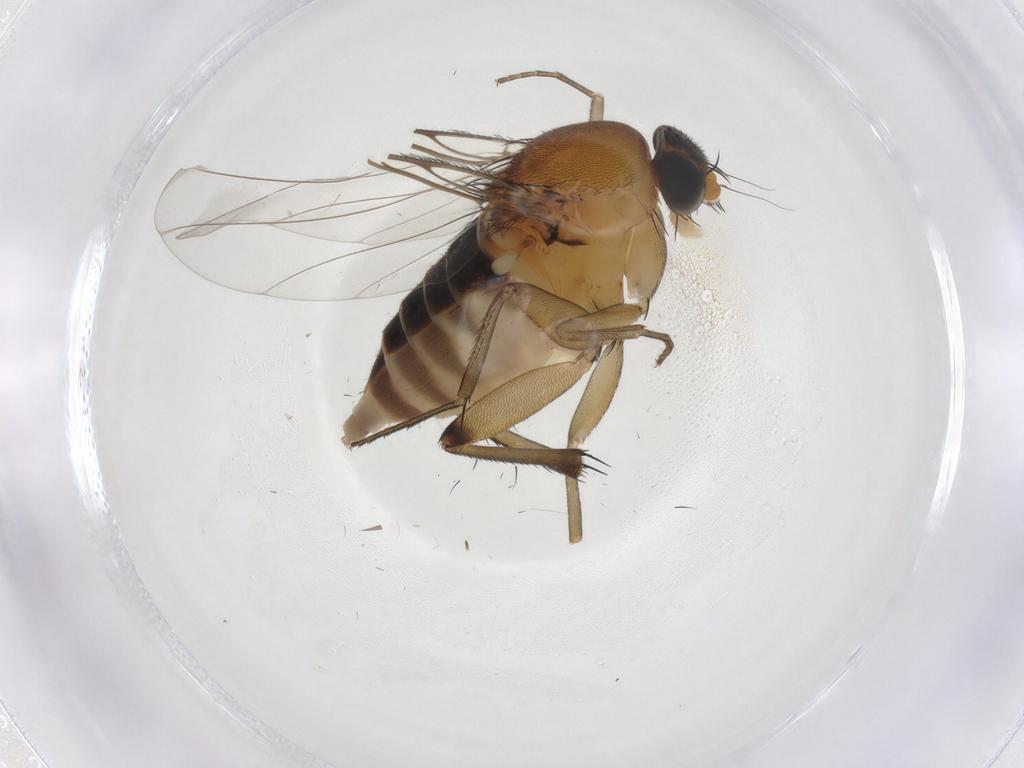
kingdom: Animalia
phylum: Arthropoda
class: Insecta
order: Diptera
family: Phoridae
